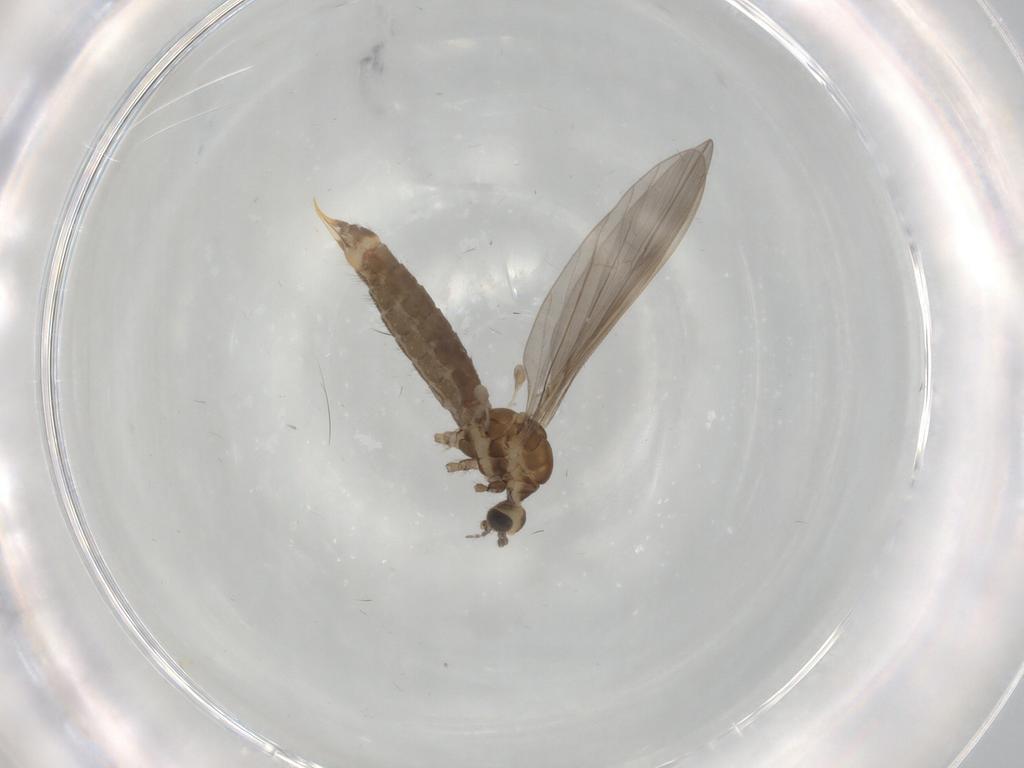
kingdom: Animalia
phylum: Arthropoda
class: Insecta
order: Diptera
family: Limoniidae
